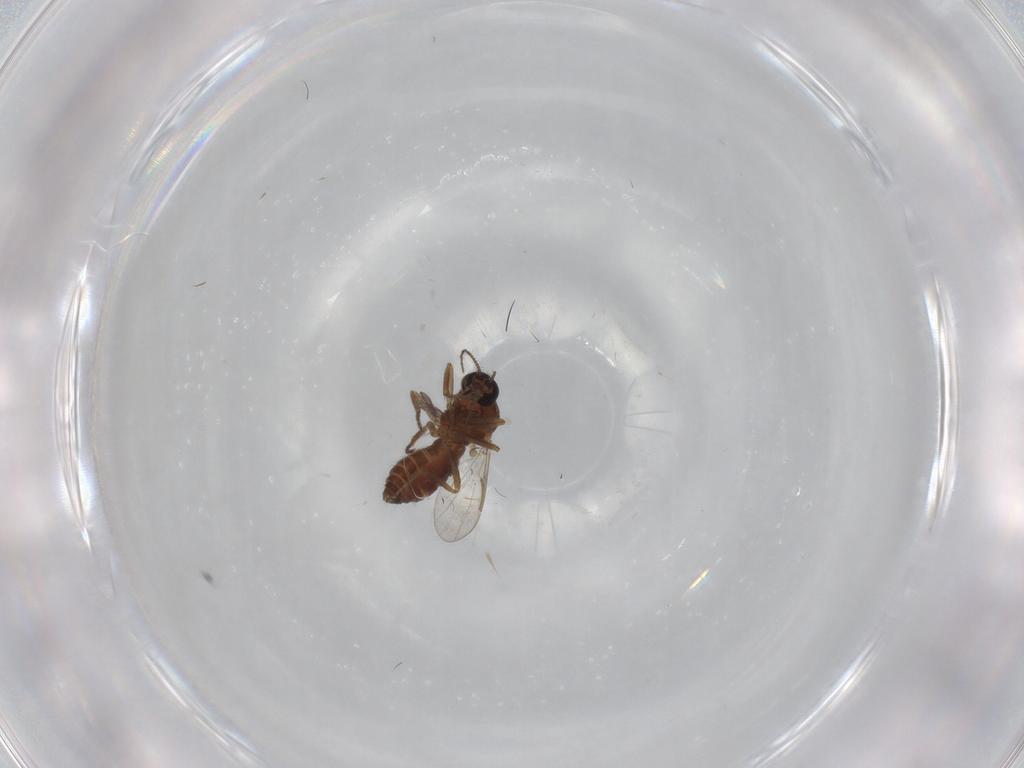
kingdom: Animalia
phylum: Arthropoda
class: Insecta
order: Diptera
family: Ceratopogonidae
